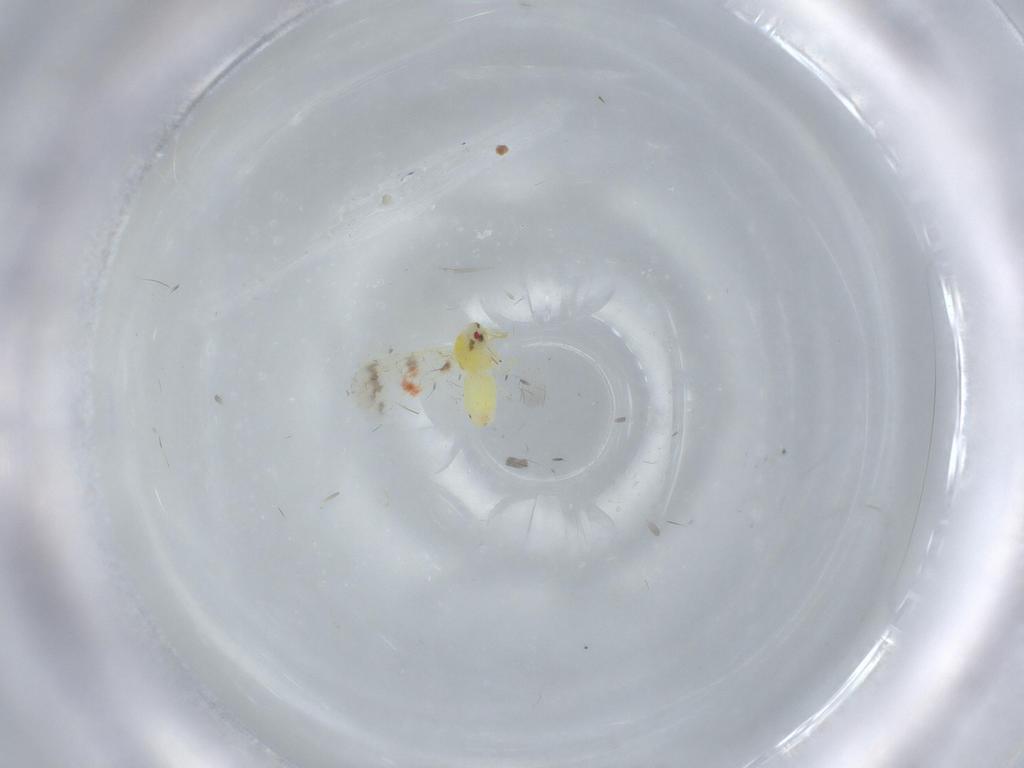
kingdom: Animalia
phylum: Arthropoda
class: Insecta
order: Hemiptera
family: Aleyrodidae
